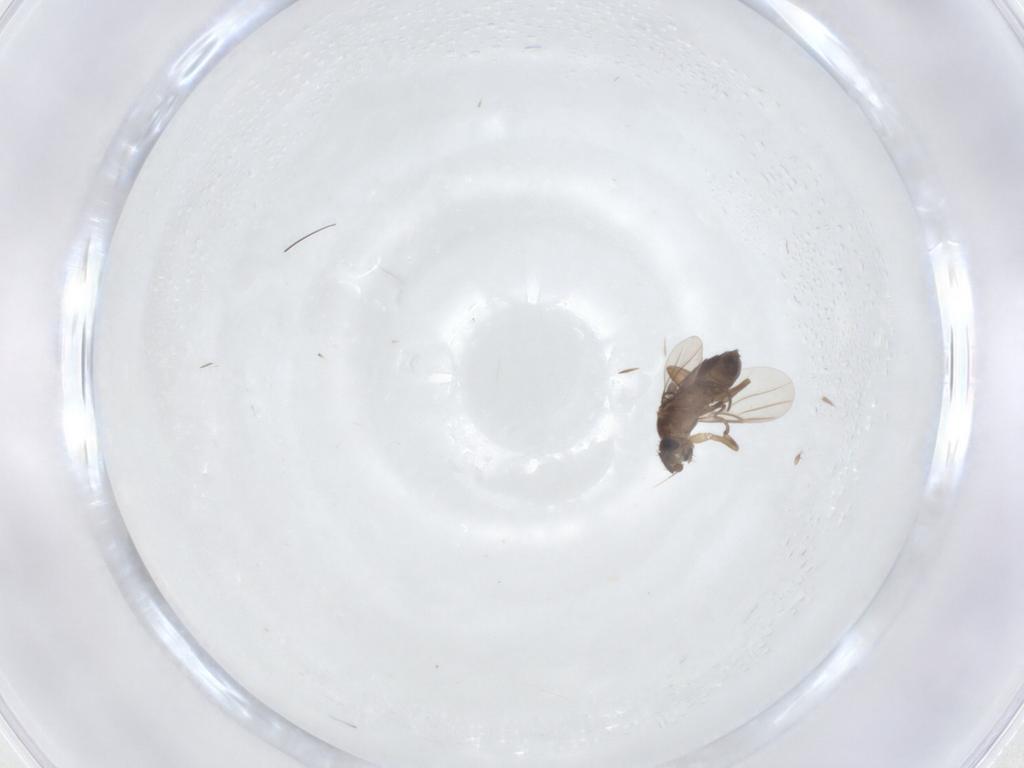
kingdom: Animalia
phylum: Arthropoda
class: Insecta
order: Diptera
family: Phoridae
